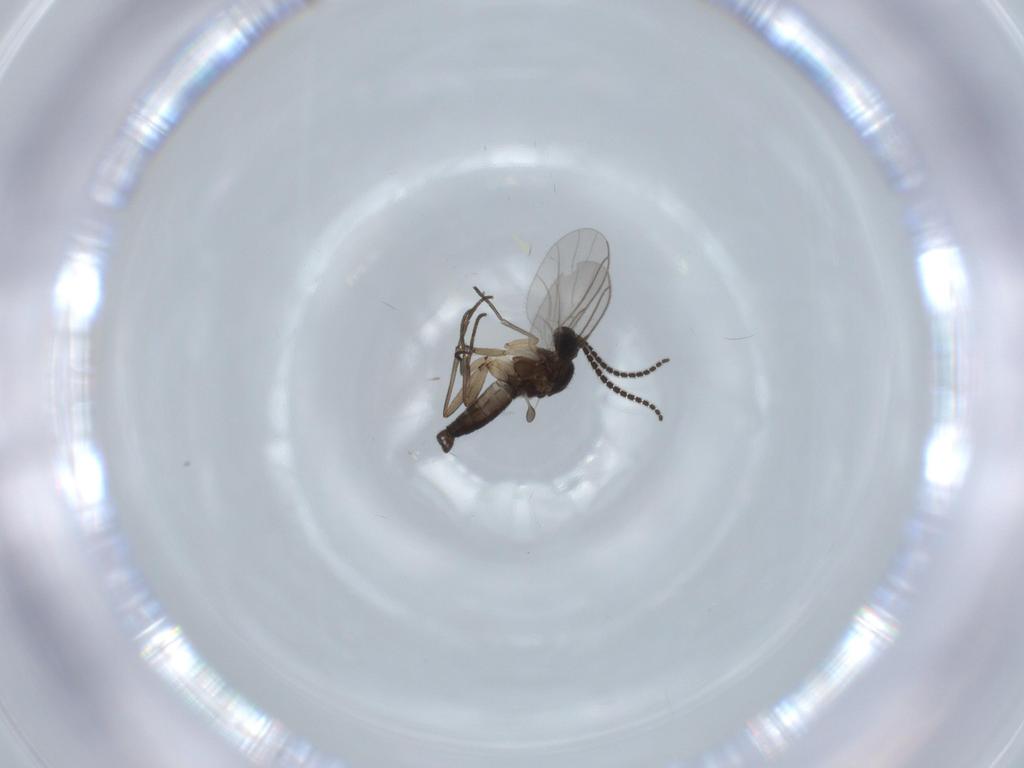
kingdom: Animalia
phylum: Arthropoda
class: Insecta
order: Diptera
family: Sciaridae
